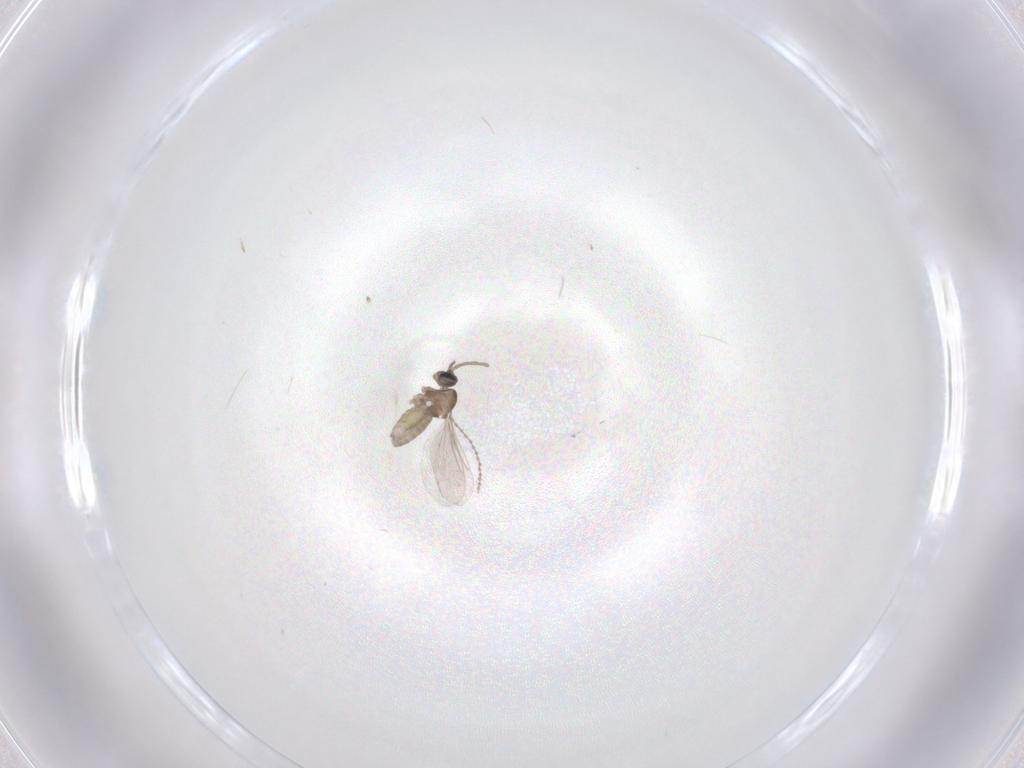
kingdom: Animalia
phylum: Arthropoda
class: Insecta
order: Diptera
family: Cecidomyiidae
